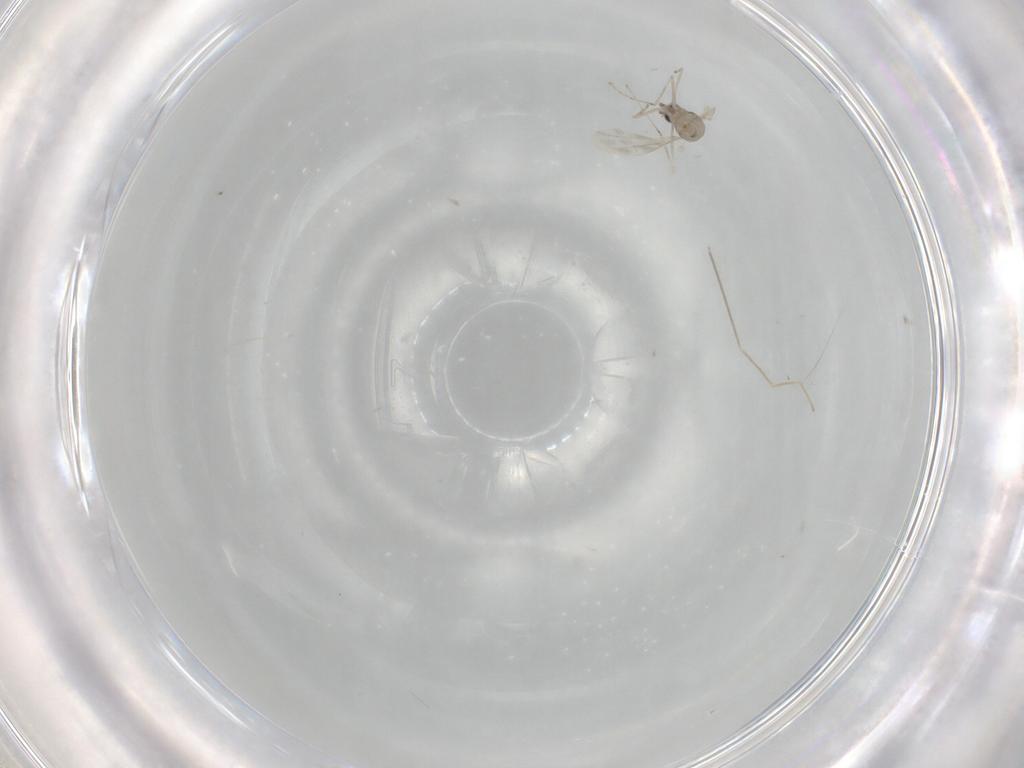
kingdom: Animalia
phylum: Arthropoda
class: Insecta
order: Diptera
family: Cecidomyiidae
